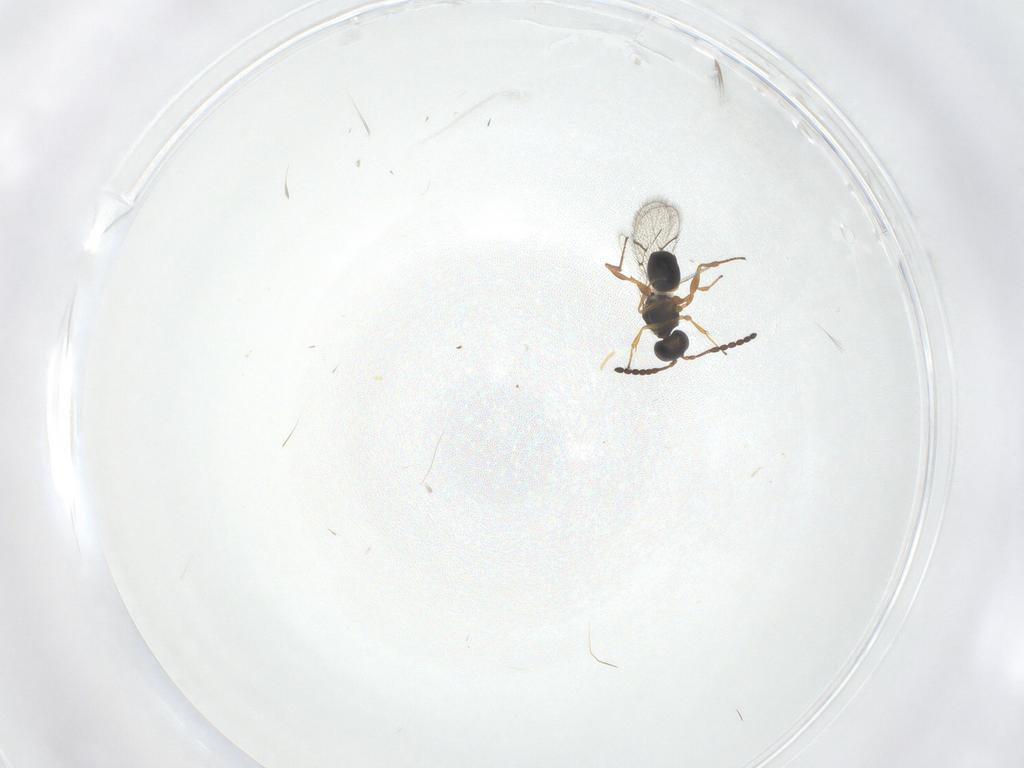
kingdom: Animalia
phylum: Arthropoda
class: Insecta
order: Hymenoptera
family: Figitidae
